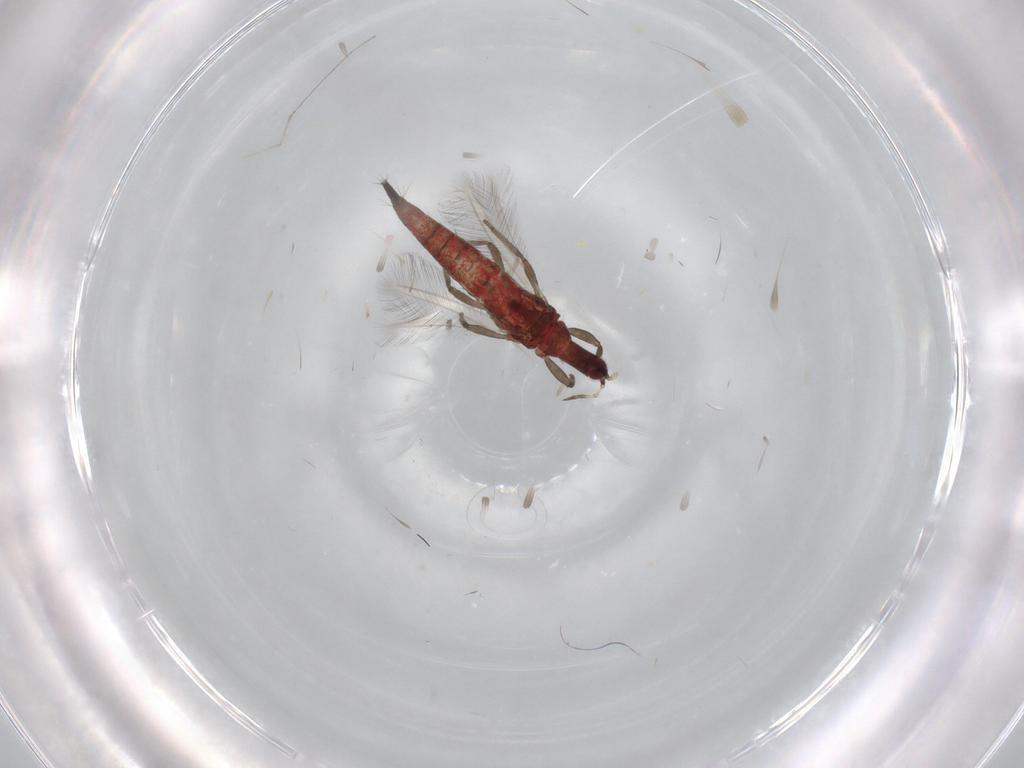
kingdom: Animalia
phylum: Arthropoda
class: Insecta
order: Thysanoptera
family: Phlaeothripidae
